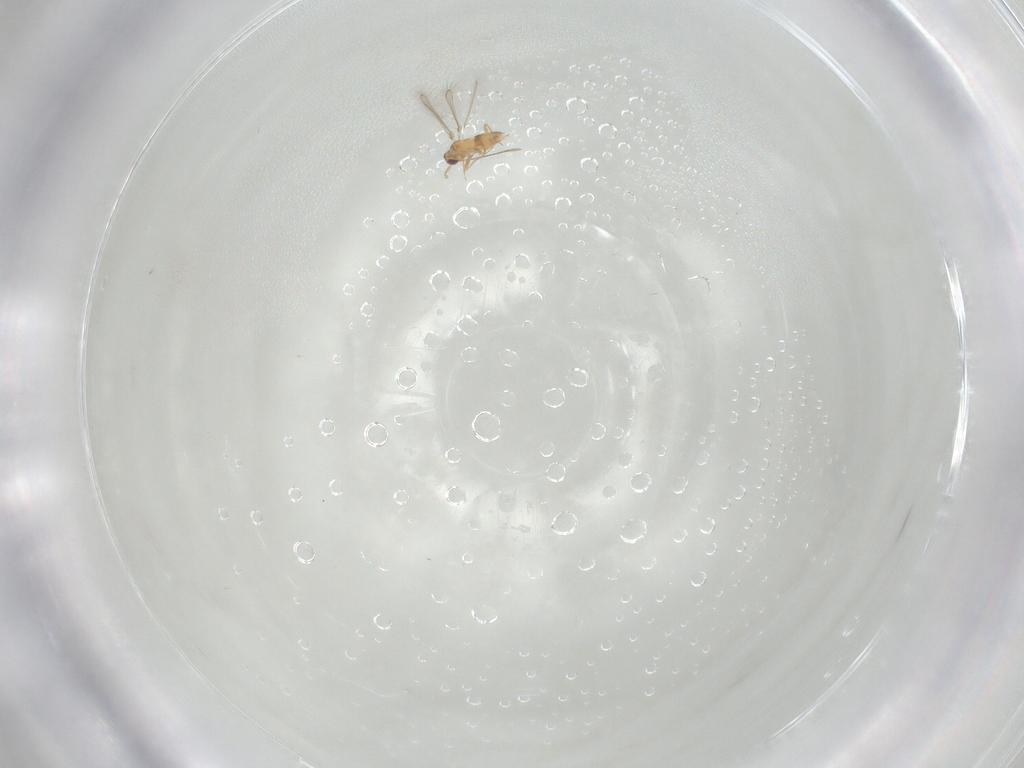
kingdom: Animalia
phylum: Arthropoda
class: Insecta
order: Hymenoptera
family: Mymaridae
